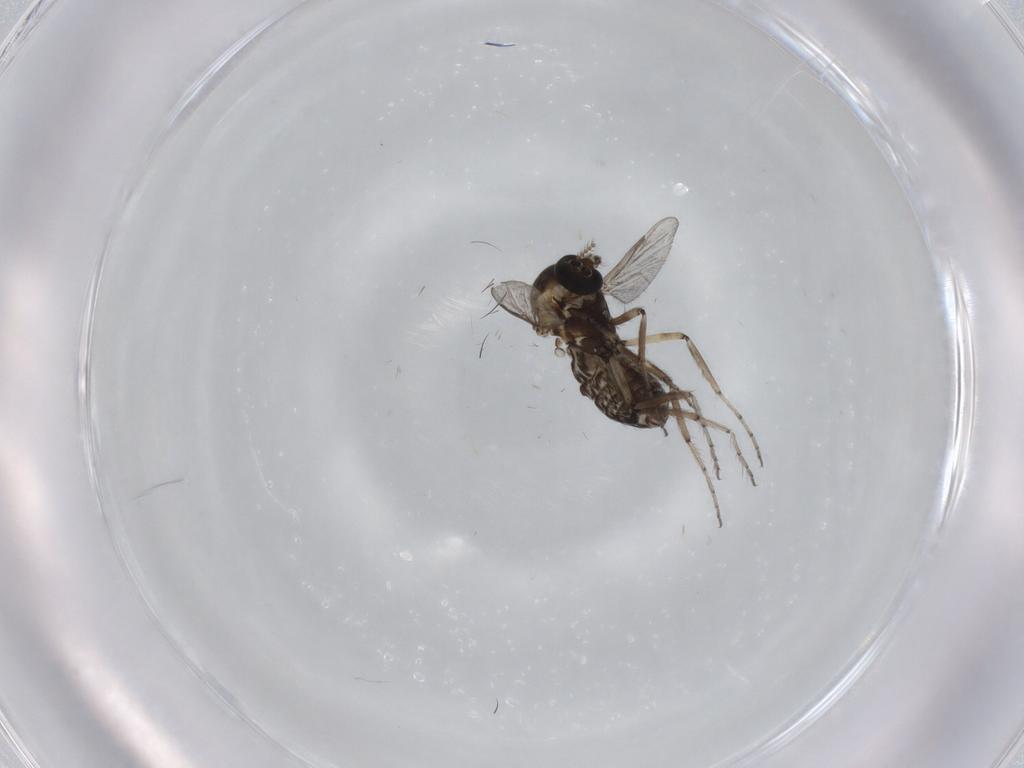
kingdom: Animalia
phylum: Arthropoda
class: Insecta
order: Diptera
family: Ceratopogonidae
